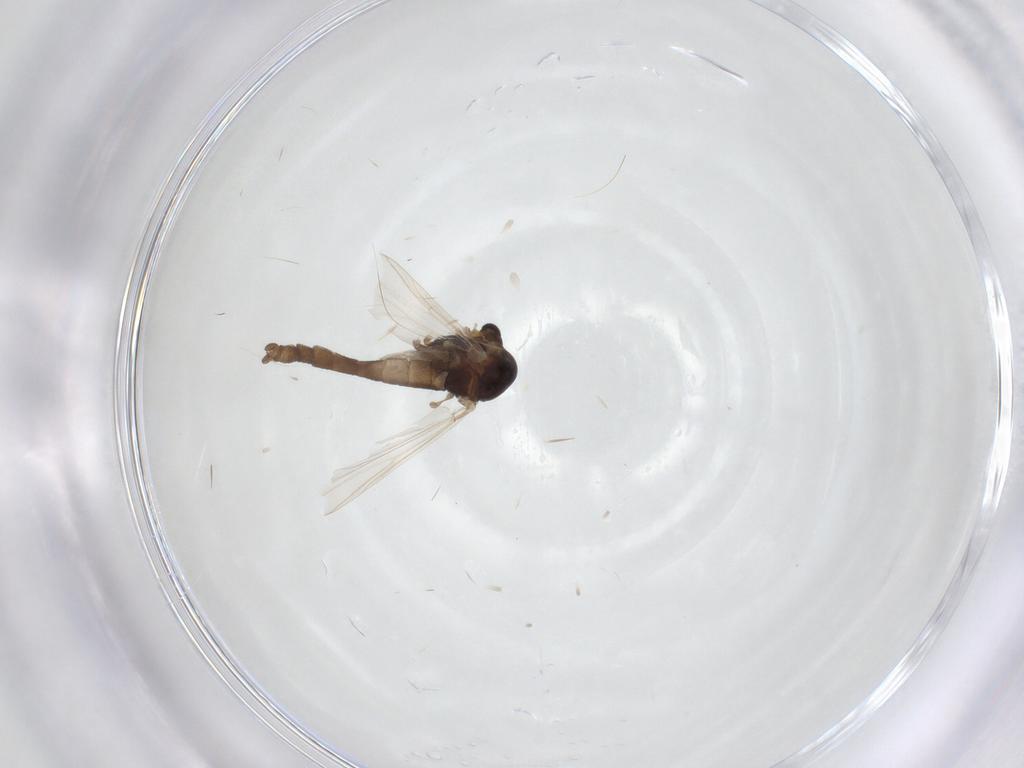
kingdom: Animalia
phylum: Arthropoda
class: Insecta
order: Diptera
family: Chironomidae
